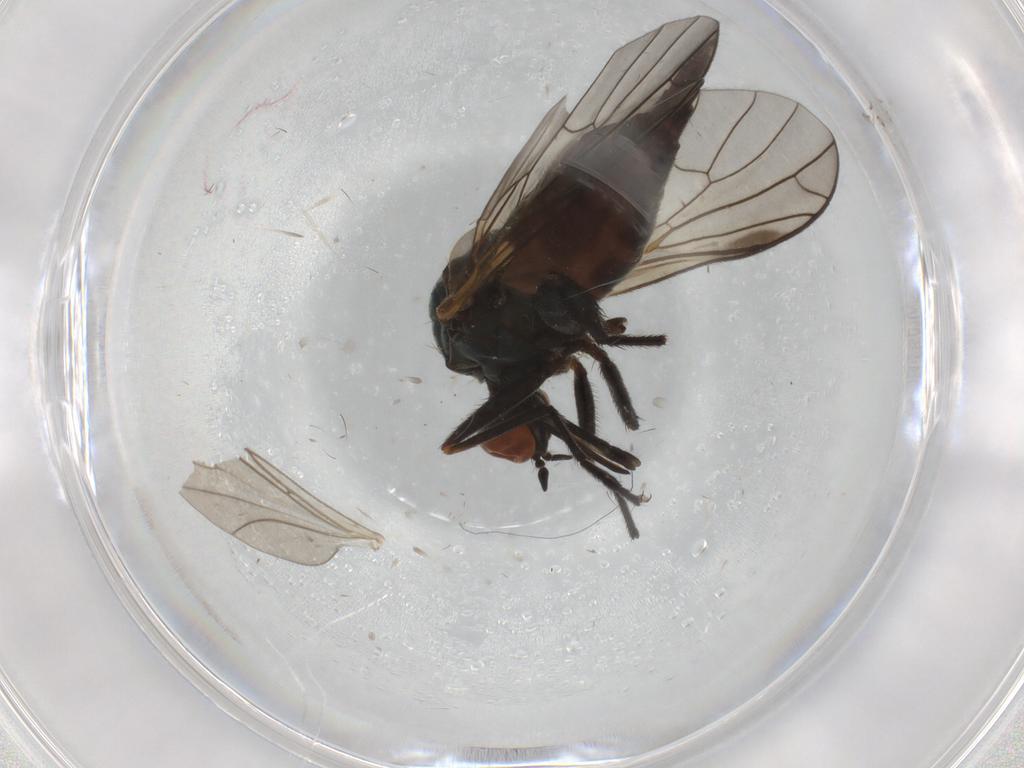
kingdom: Animalia
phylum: Arthropoda
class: Insecta
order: Diptera
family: Empididae
